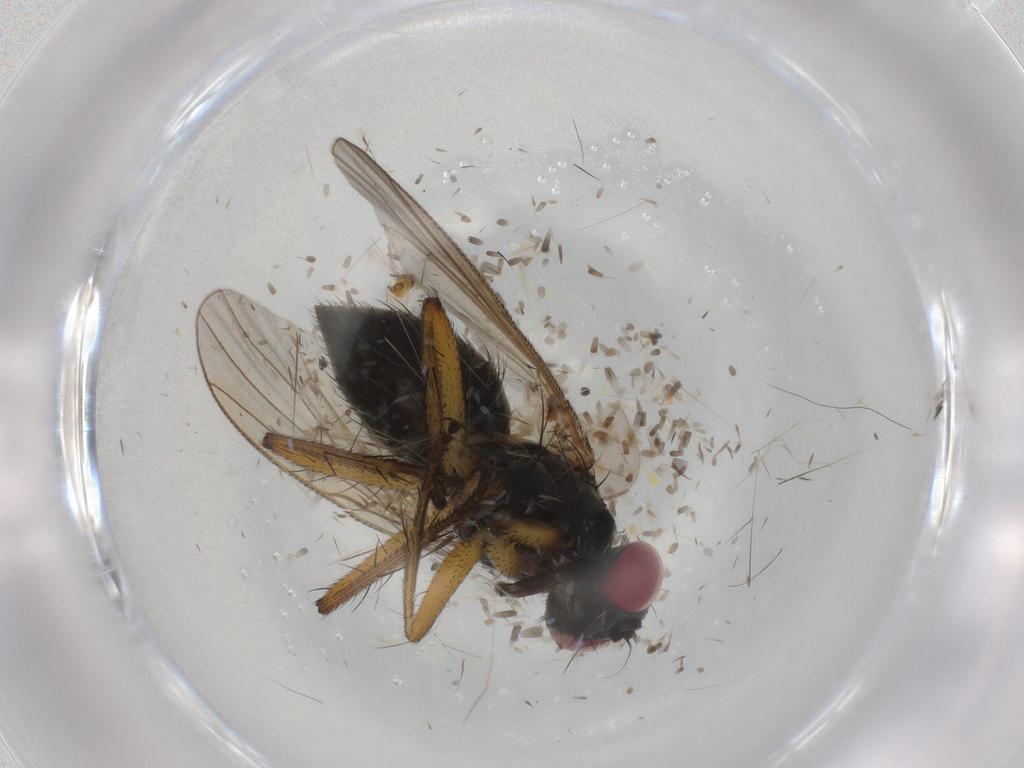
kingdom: Animalia
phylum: Arthropoda
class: Insecta
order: Diptera
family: Muscidae
